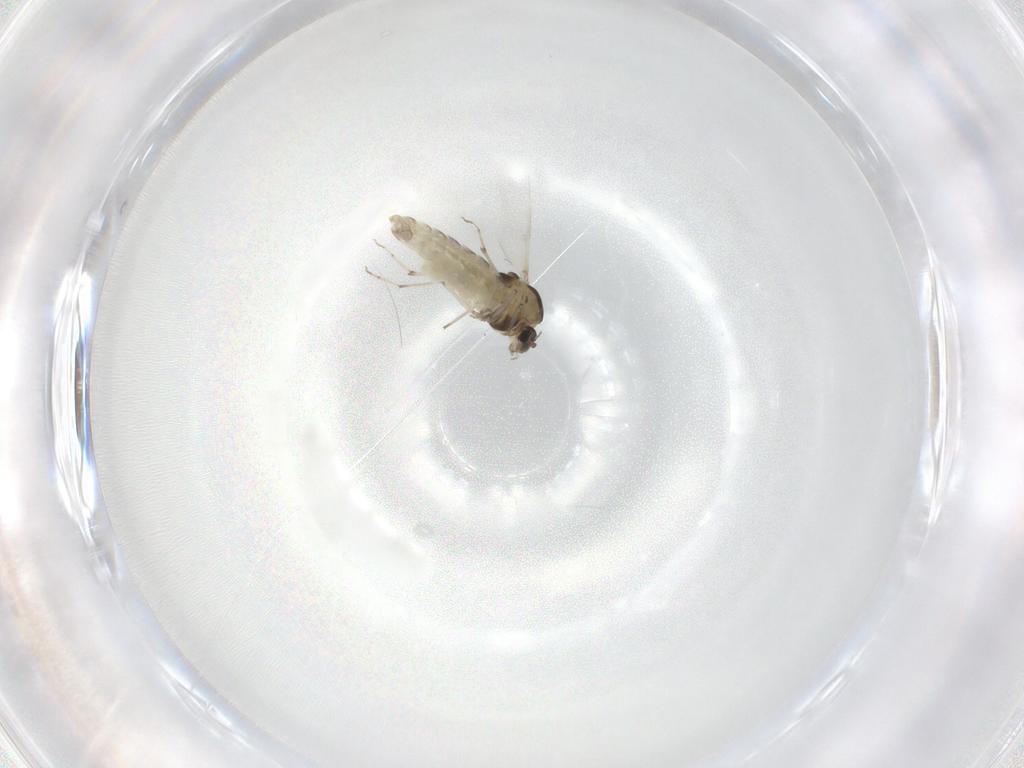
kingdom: Animalia
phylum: Arthropoda
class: Insecta
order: Diptera
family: Chironomidae
